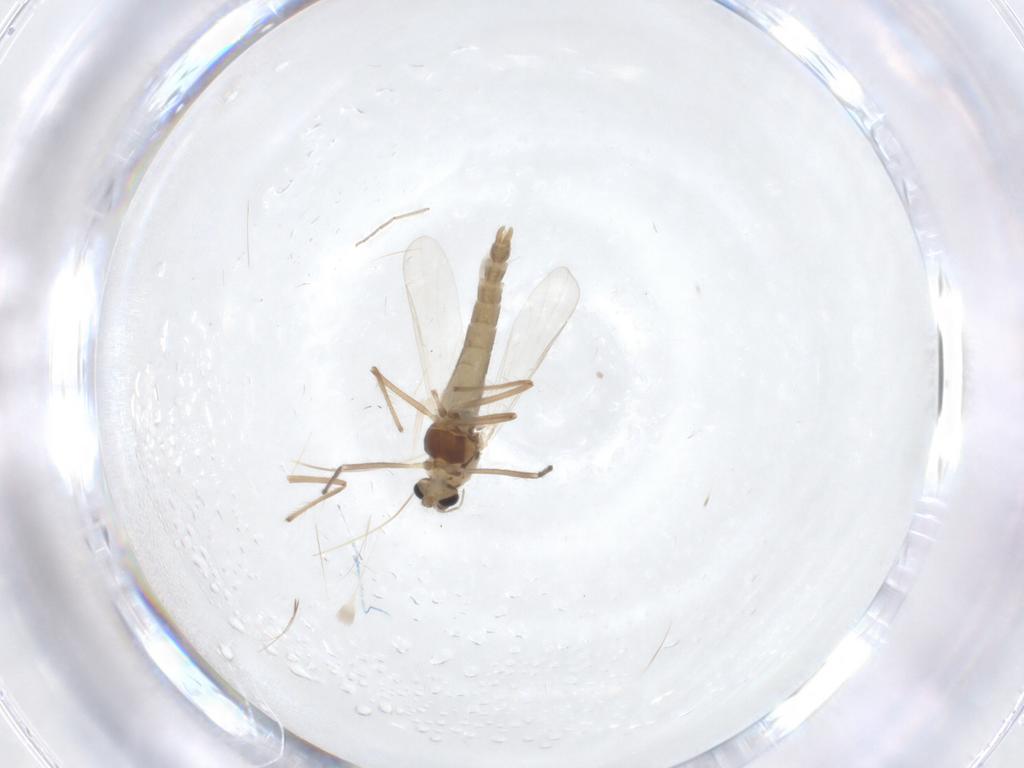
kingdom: Animalia
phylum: Arthropoda
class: Insecta
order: Diptera
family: Chironomidae
